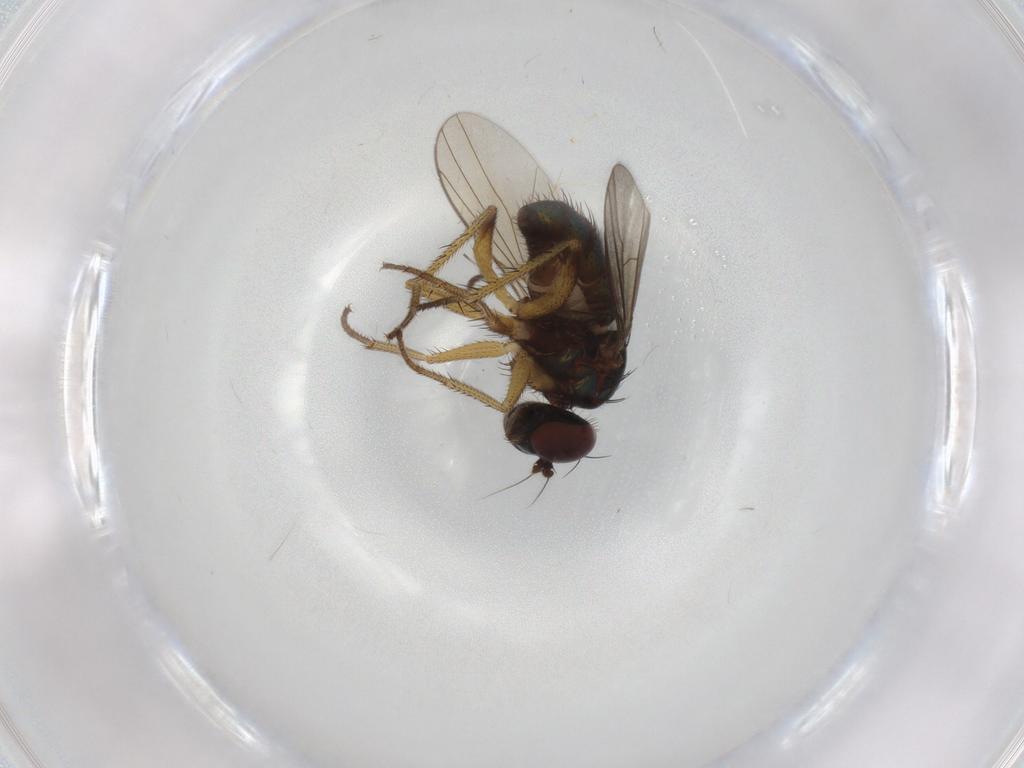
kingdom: Animalia
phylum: Arthropoda
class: Insecta
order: Diptera
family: Dolichopodidae
